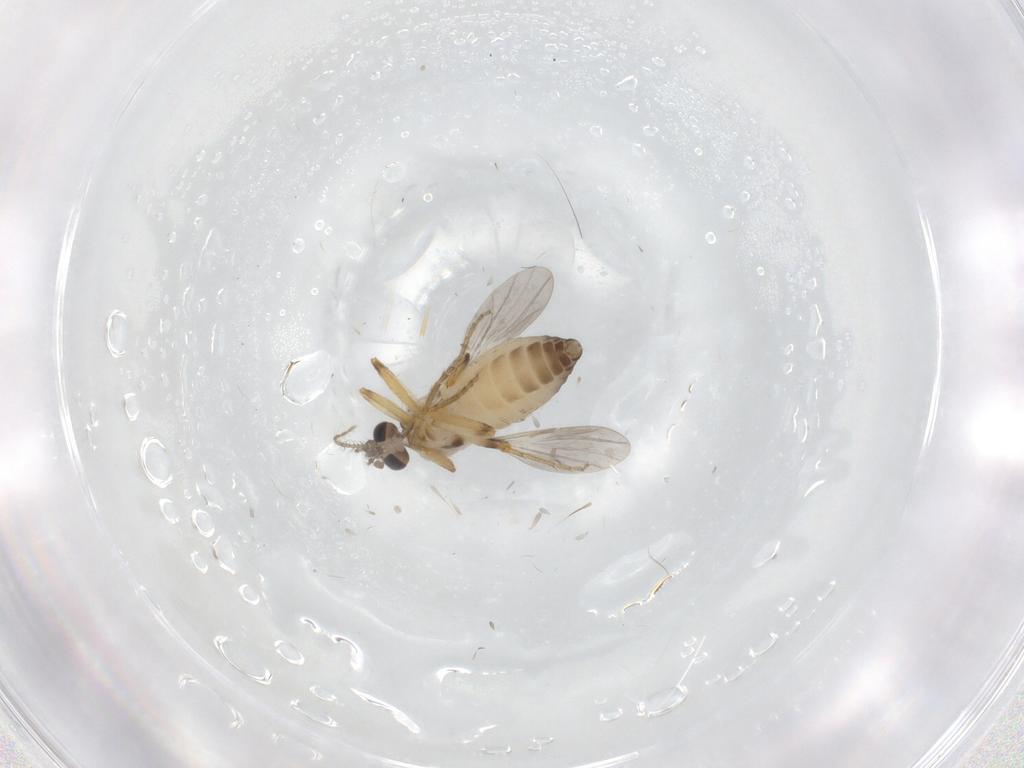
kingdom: Animalia
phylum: Arthropoda
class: Insecta
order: Diptera
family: Ceratopogonidae
